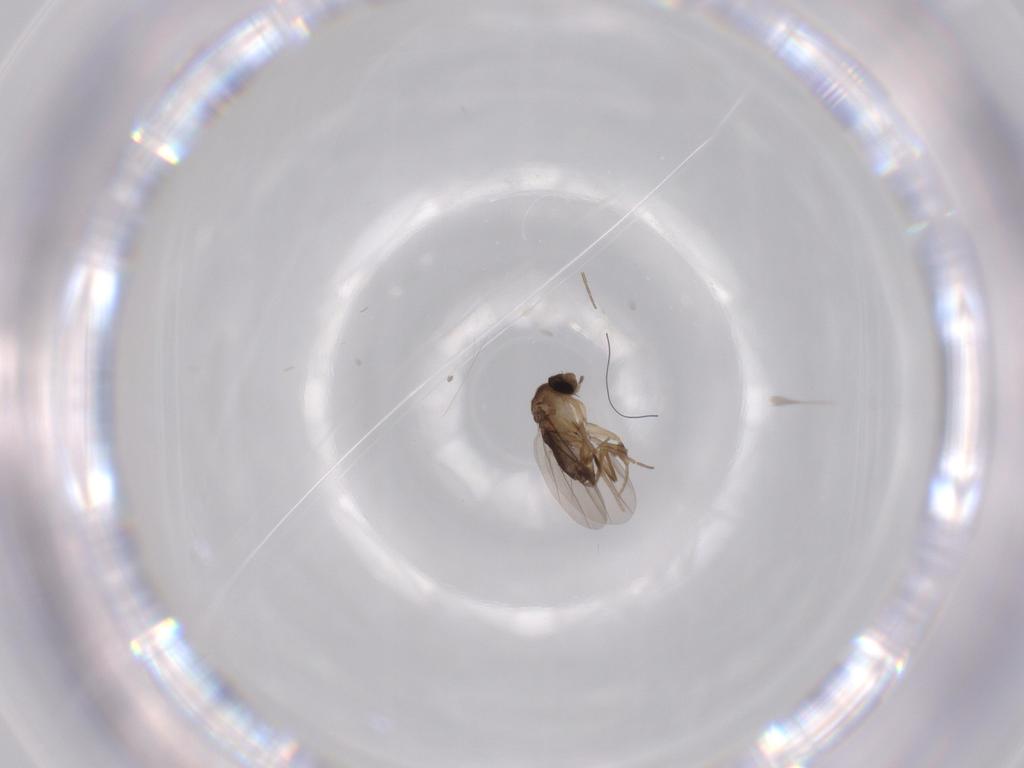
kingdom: Animalia
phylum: Arthropoda
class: Insecta
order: Diptera
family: Phoridae
